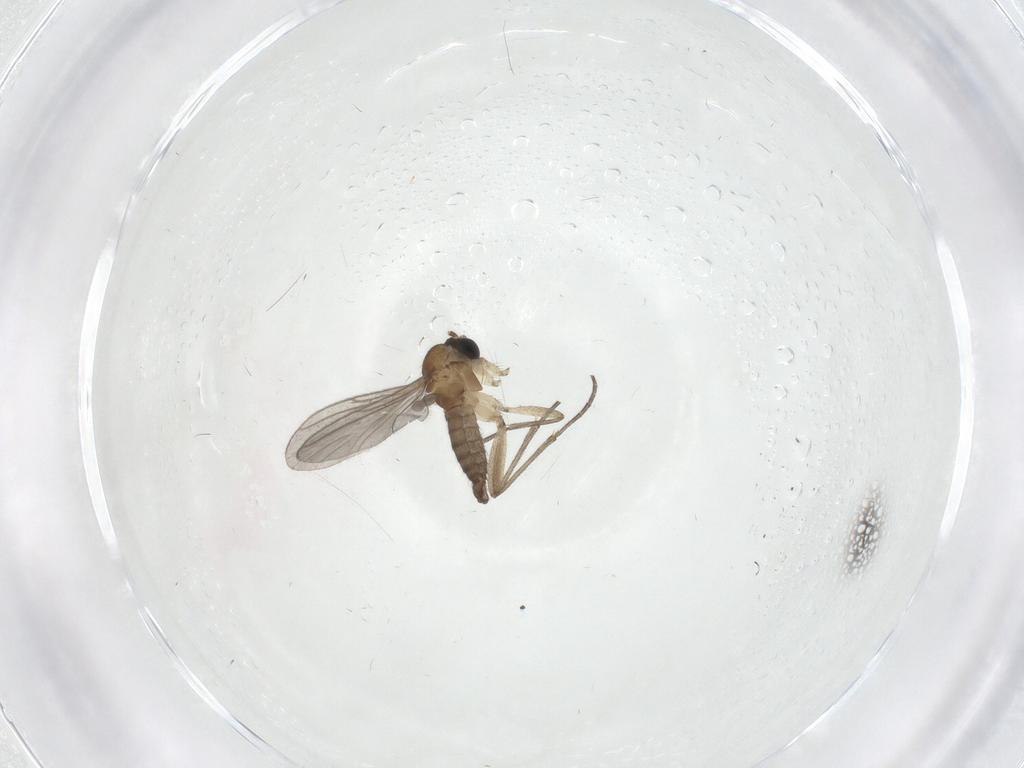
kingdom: Animalia
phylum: Arthropoda
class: Insecta
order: Diptera
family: Sciaridae
